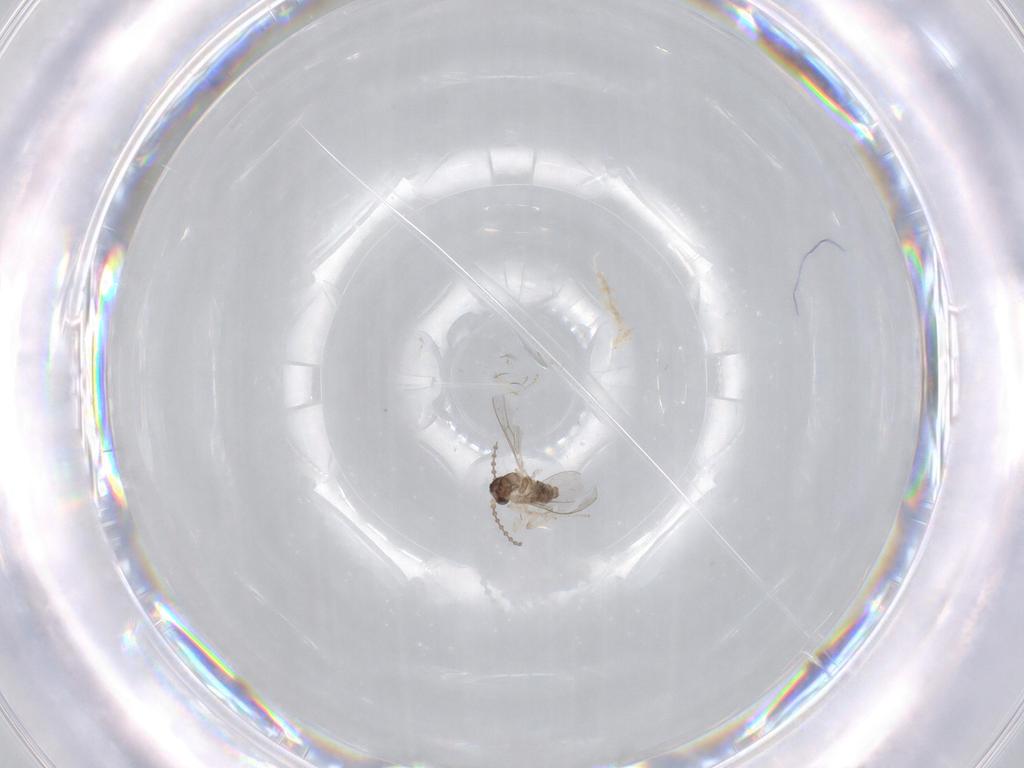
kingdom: Animalia
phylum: Arthropoda
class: Insecta
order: Diptera
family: Cecidomyiidae
